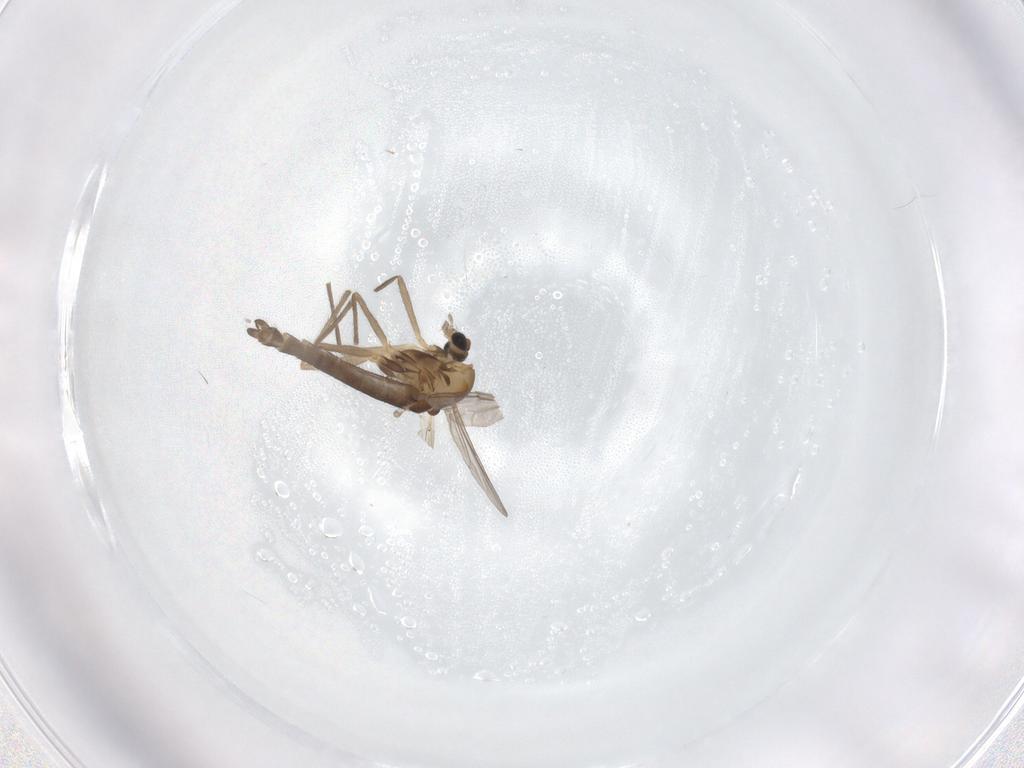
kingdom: Animalia
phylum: Arthropoda
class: Insecta
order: Diptera
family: Chironomidae
